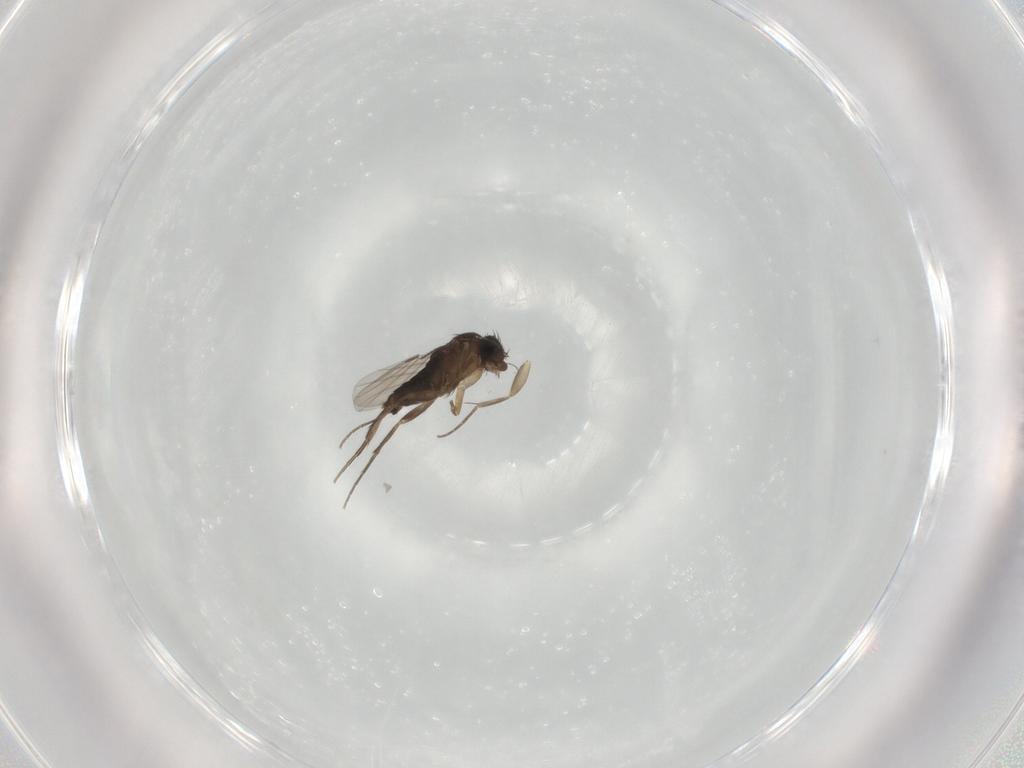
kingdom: Animalia
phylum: Arthropoda
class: Insecta
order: Diptera
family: Phoridae
